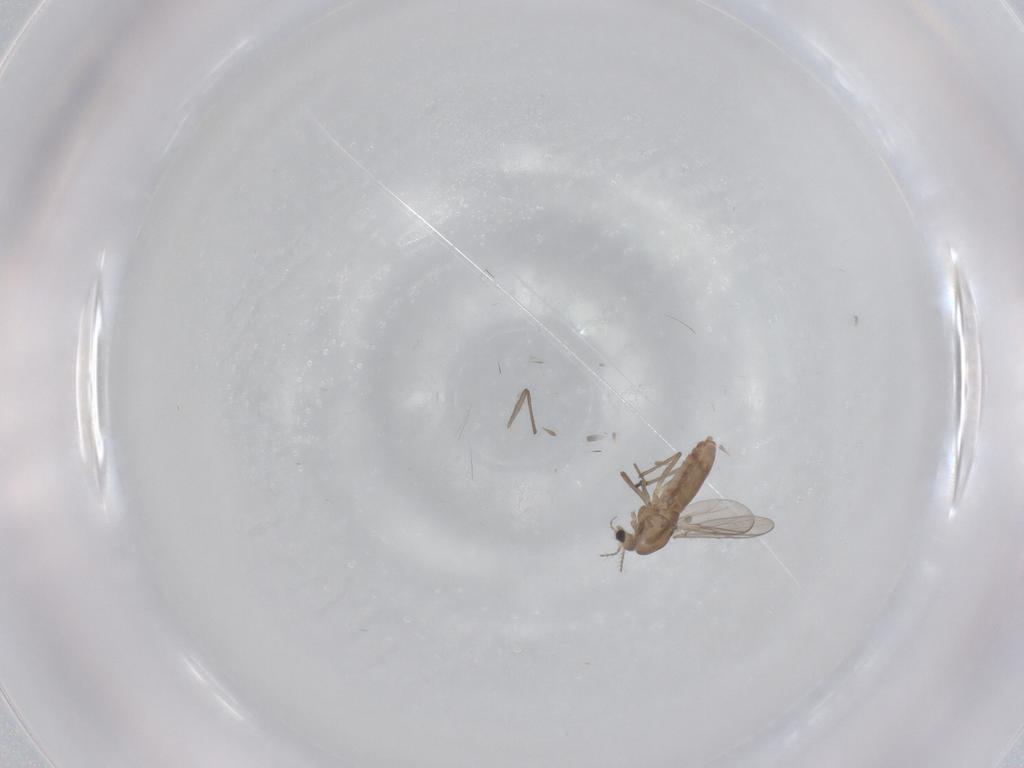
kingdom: Animalia
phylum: Arthropoda
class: Insecta
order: Diptera
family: Chironomidae
